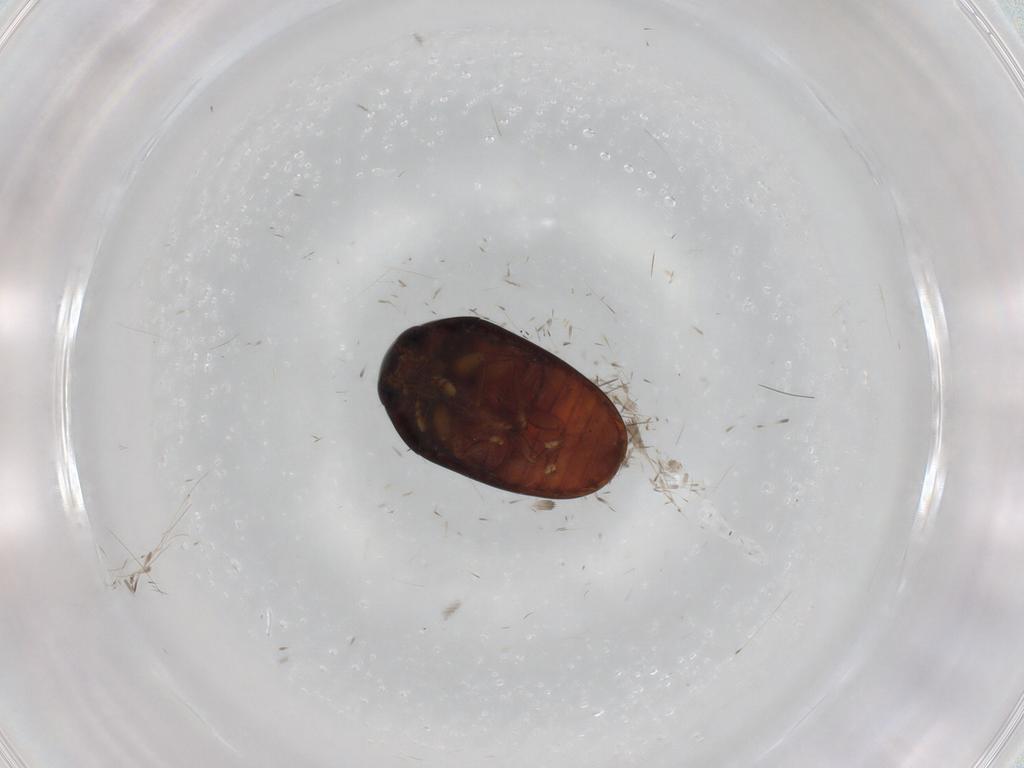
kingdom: Animalia
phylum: Arthropoda
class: Insecta
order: Coleoptera
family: Phalacridae
